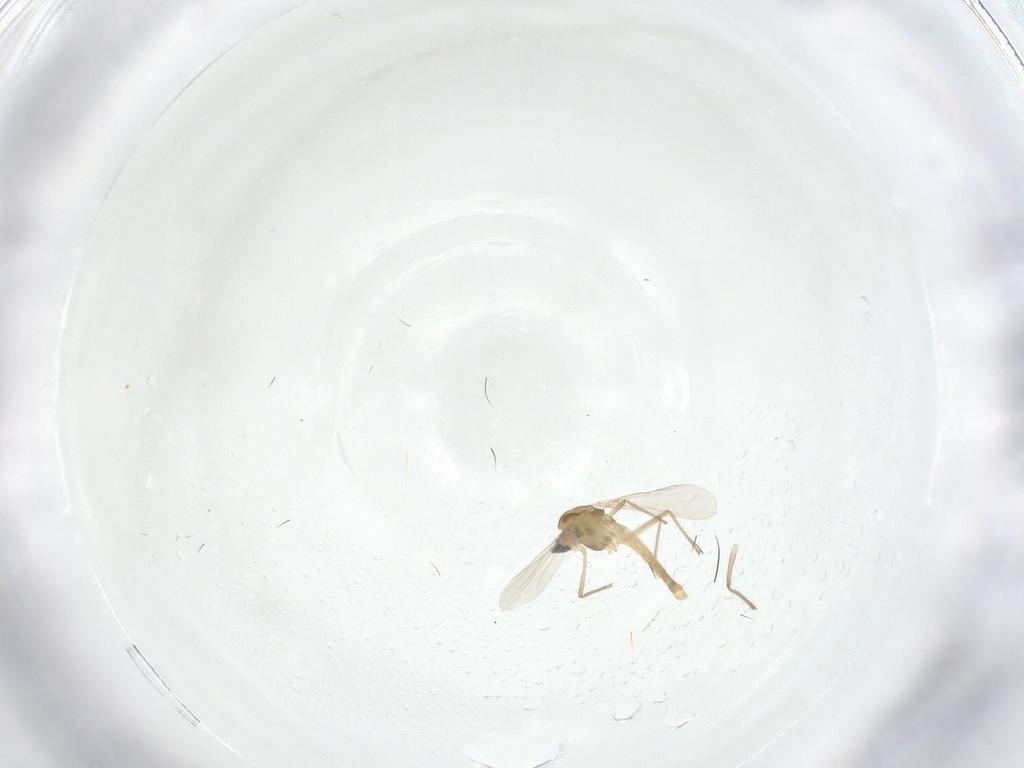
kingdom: Animalia
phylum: Arthropoda
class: Insecta
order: Diptera
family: Chironomidae
